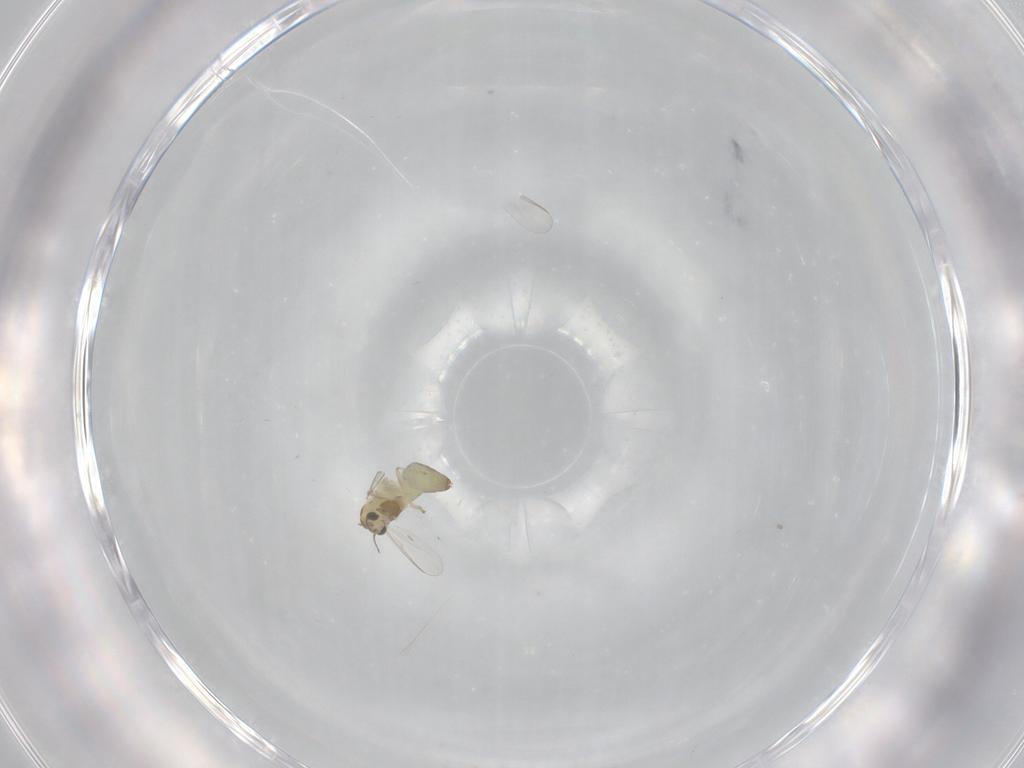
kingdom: Animalia
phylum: Arthropoda
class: Insecta
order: Diptera
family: Chironomidae
